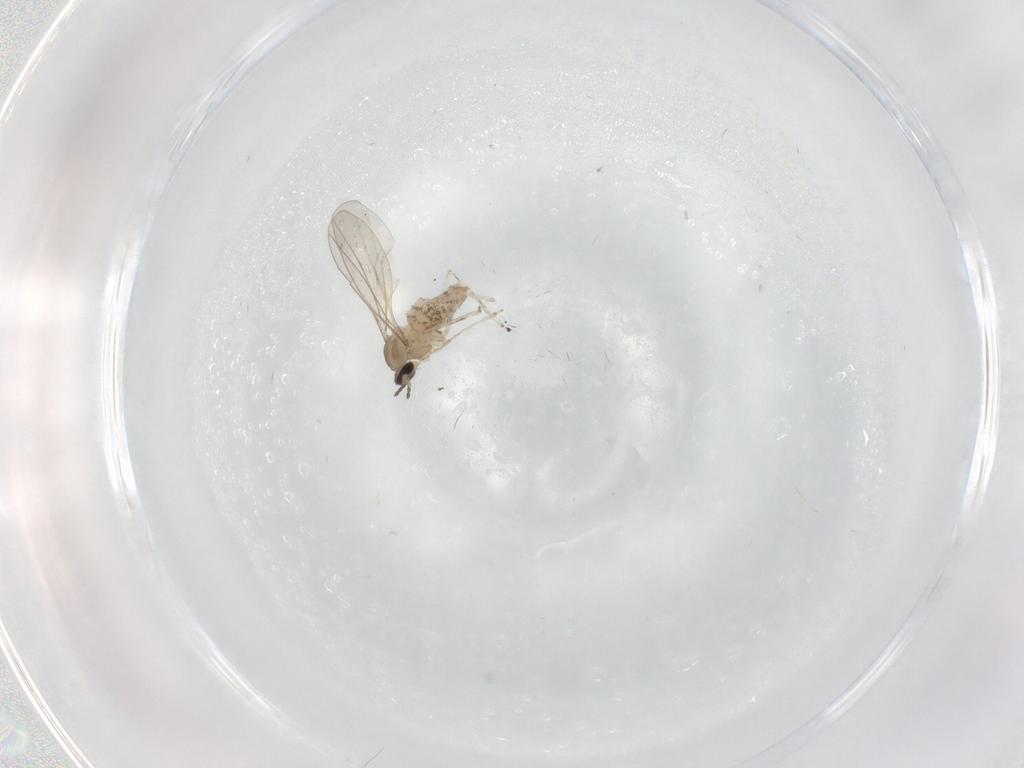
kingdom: Animalia
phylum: Arthropoda
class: Insecta
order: Diptera
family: Cecidomyiidae
